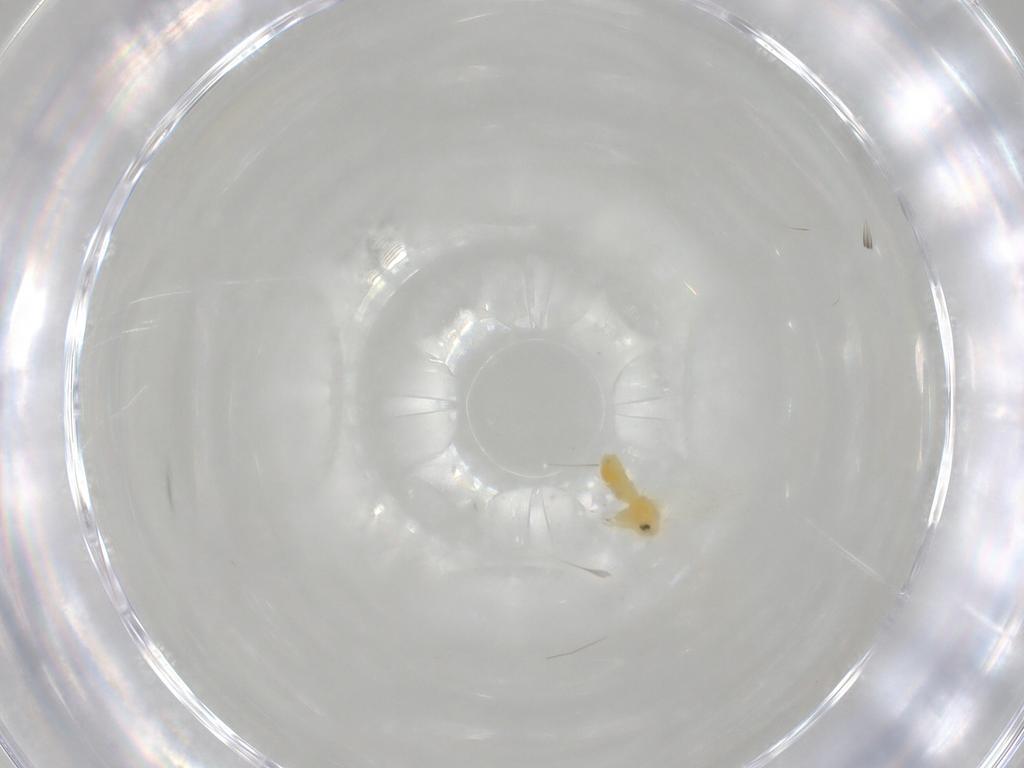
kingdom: Animalia
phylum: Arthropoda
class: Insecta
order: Hemiptera
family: Aleyrodidae
